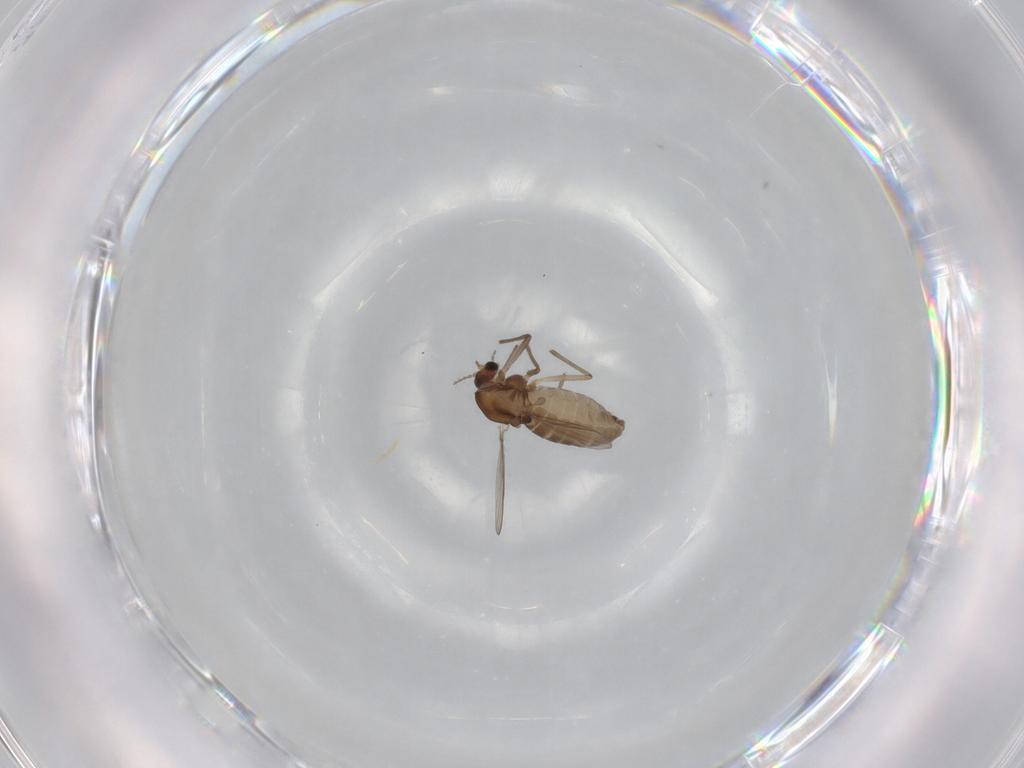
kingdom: Animalia
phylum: Arthropoda
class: Insecta
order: Diptera
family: Chironomidae
